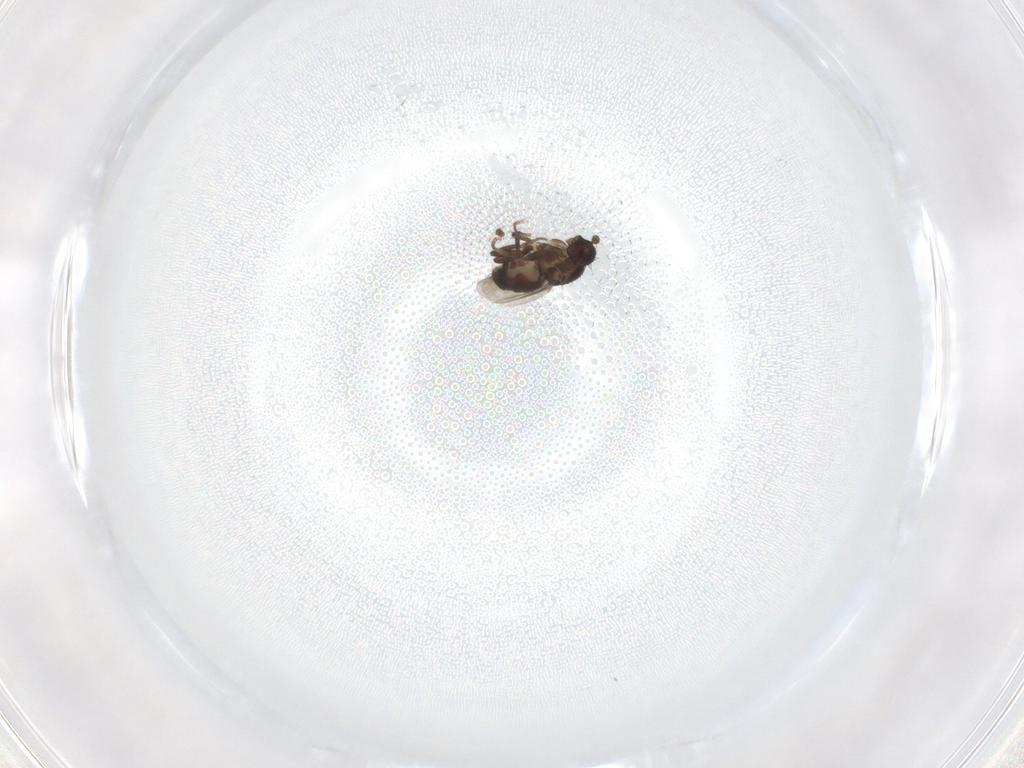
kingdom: Animalia
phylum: Arthropoda
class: Insecta
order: Diptera
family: Sphaeroceridae
